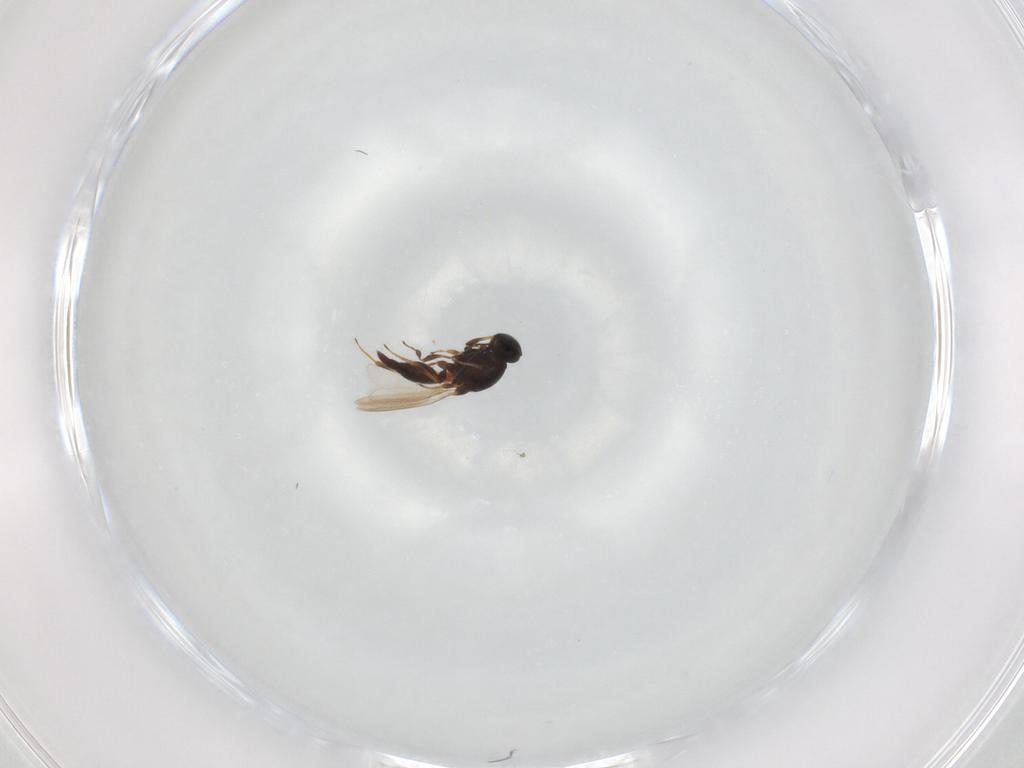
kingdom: Animalia
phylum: Arthropoda
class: Insecta
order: Hymenoptera
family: Platygastridae
